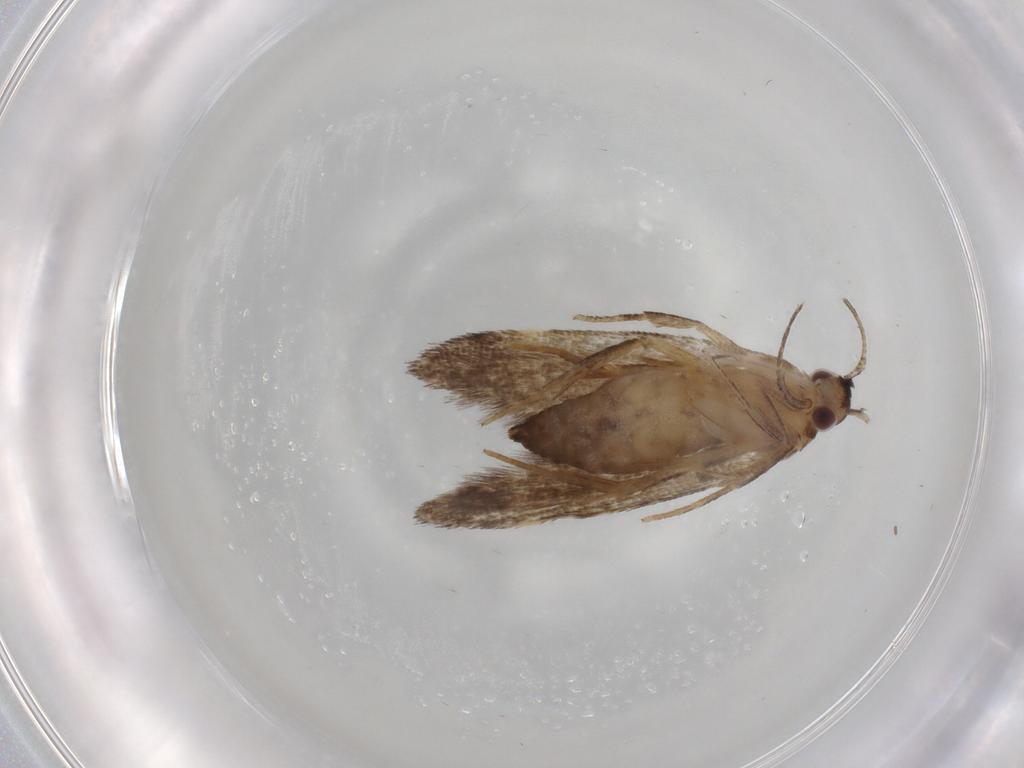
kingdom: Animalia
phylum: Arthropoda
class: Insecta
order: Lepidoptera
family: Cosmopterigidae
